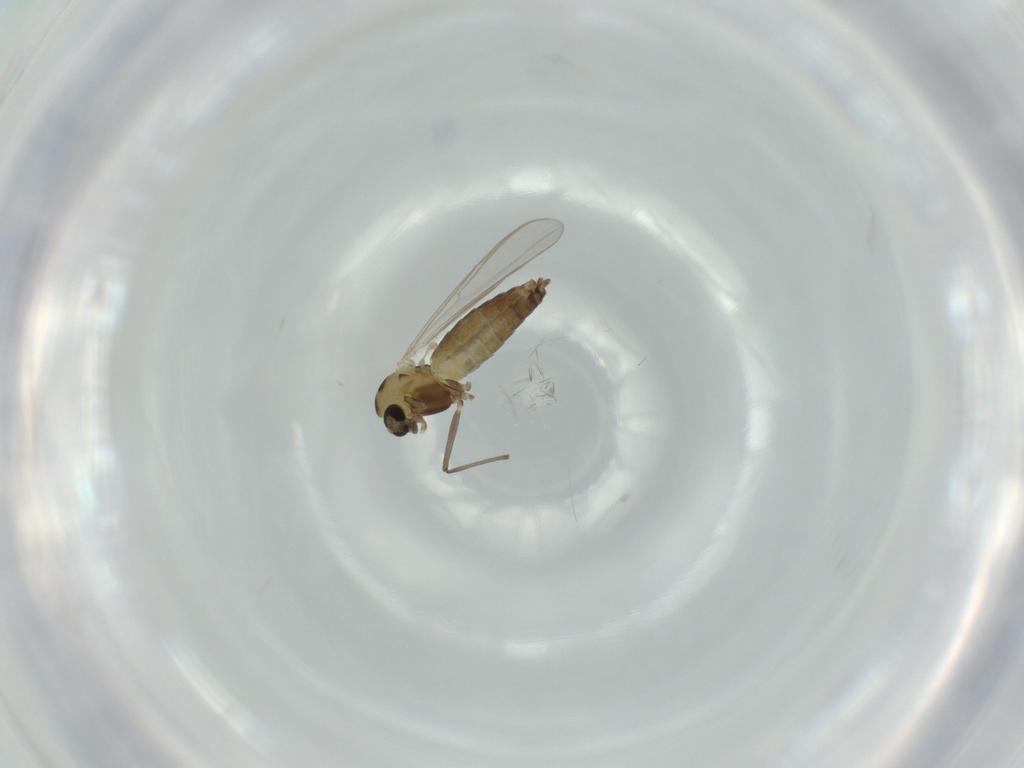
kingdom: Animalia
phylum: Arthropoda
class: Insecta
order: Diptera
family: Chironomidae
